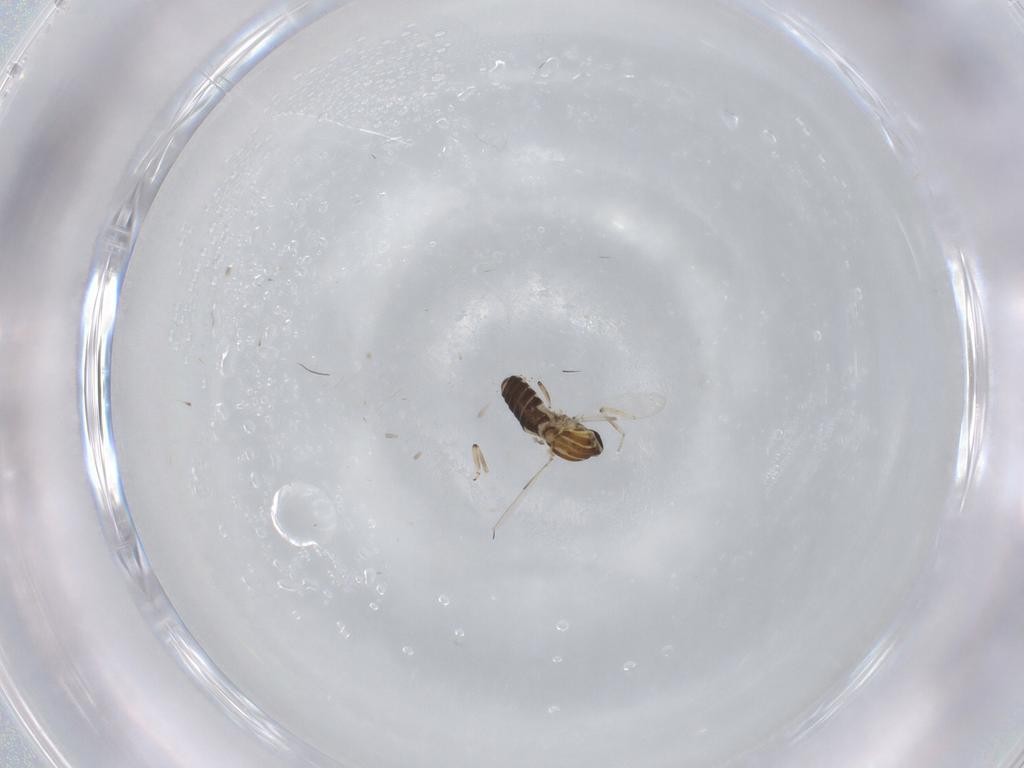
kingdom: Animalia
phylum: Arthropoda
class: Insecta
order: Diptera
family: Ceratopogonidae
